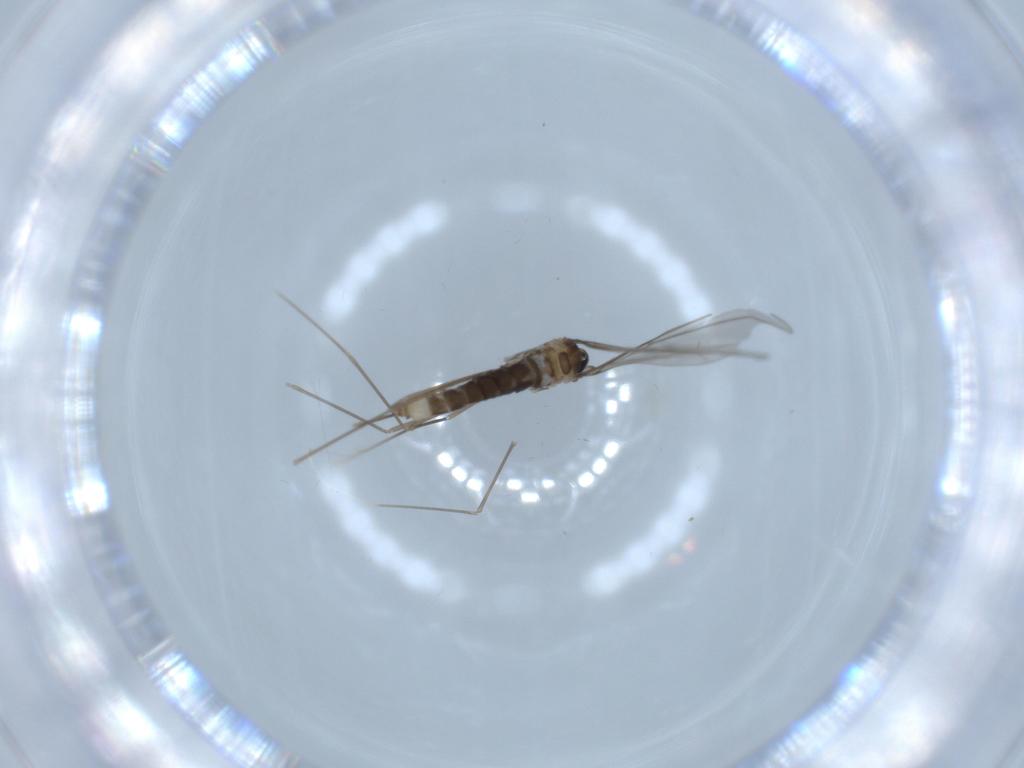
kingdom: Animalia
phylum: Arthropoda
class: Insecta
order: Diptera
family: Cecidomyiidae
